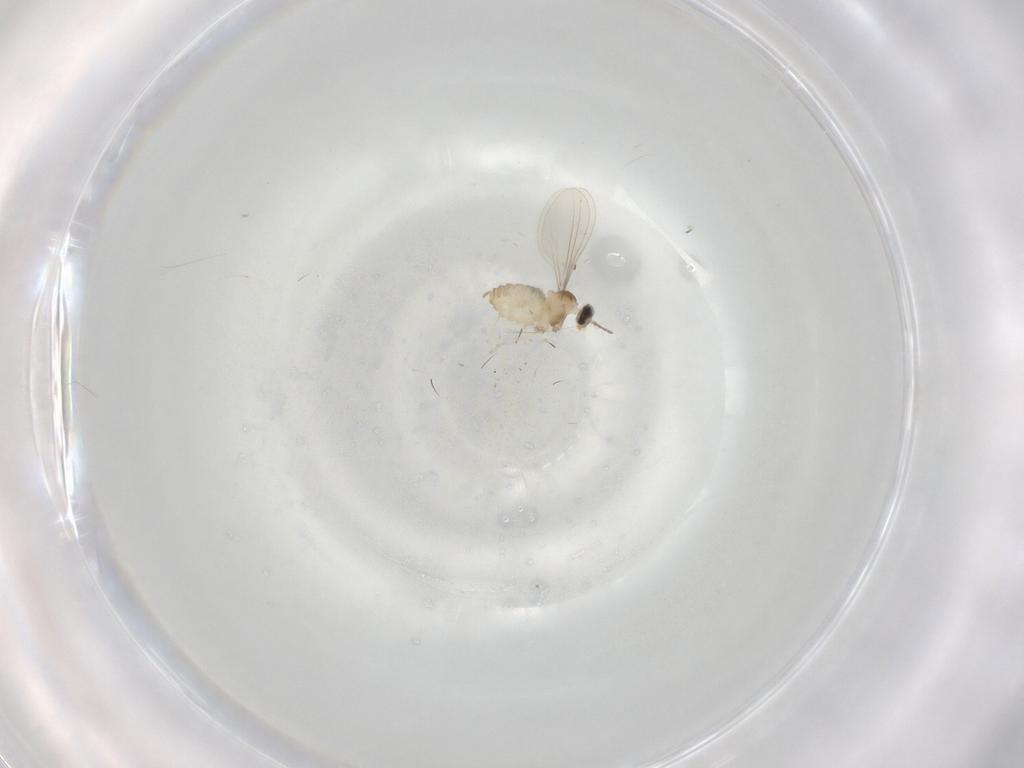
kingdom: Animalia
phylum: Arthropoda
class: Insecta
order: Diptera
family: Cecidomyiidae
